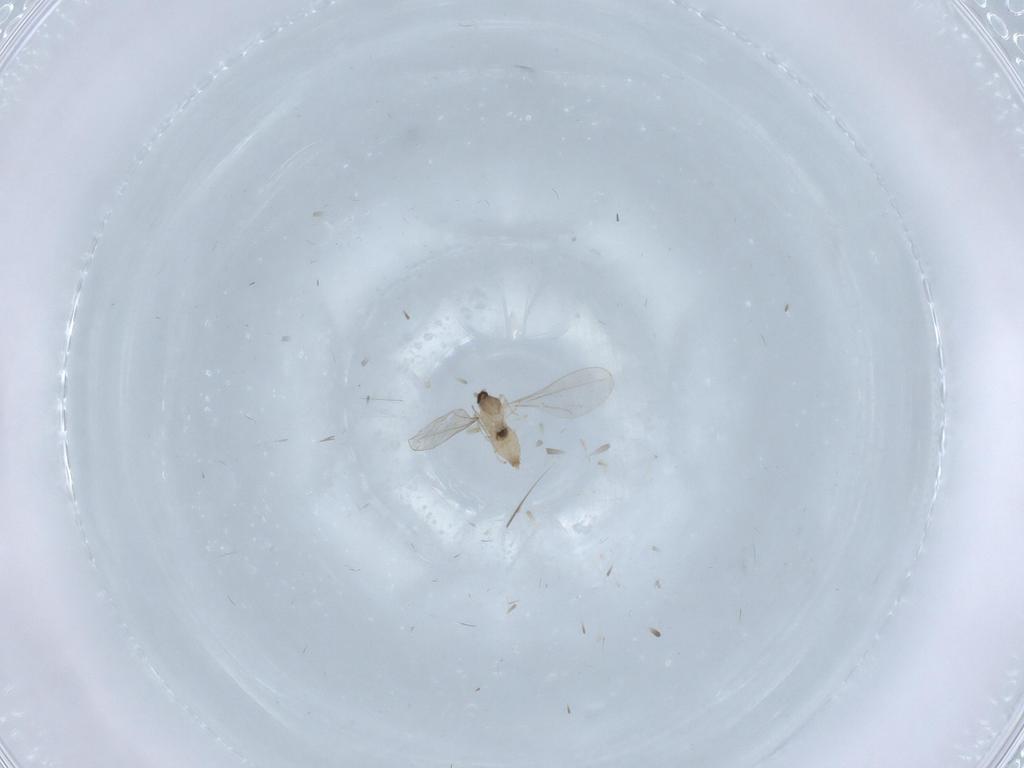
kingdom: Animalia
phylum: Arthropoda
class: Insecta
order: Diptera
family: Cecidomyiidae
